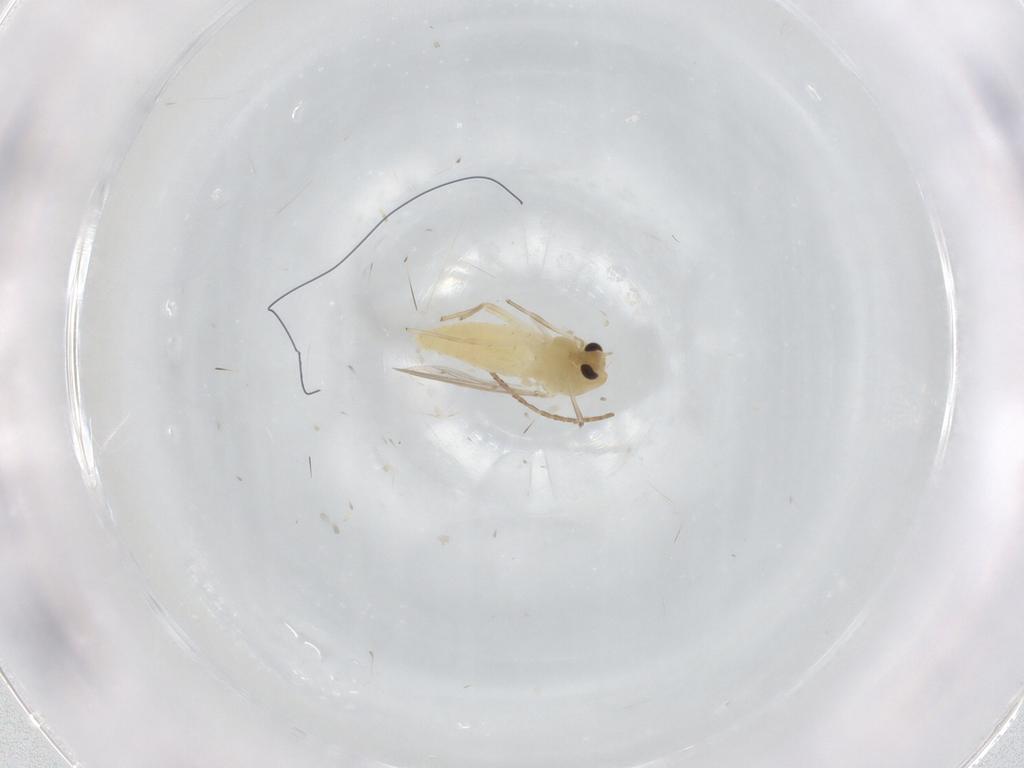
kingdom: Animalia
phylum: Arthropoda
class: Insecta
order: Diptera
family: Chironomidae
